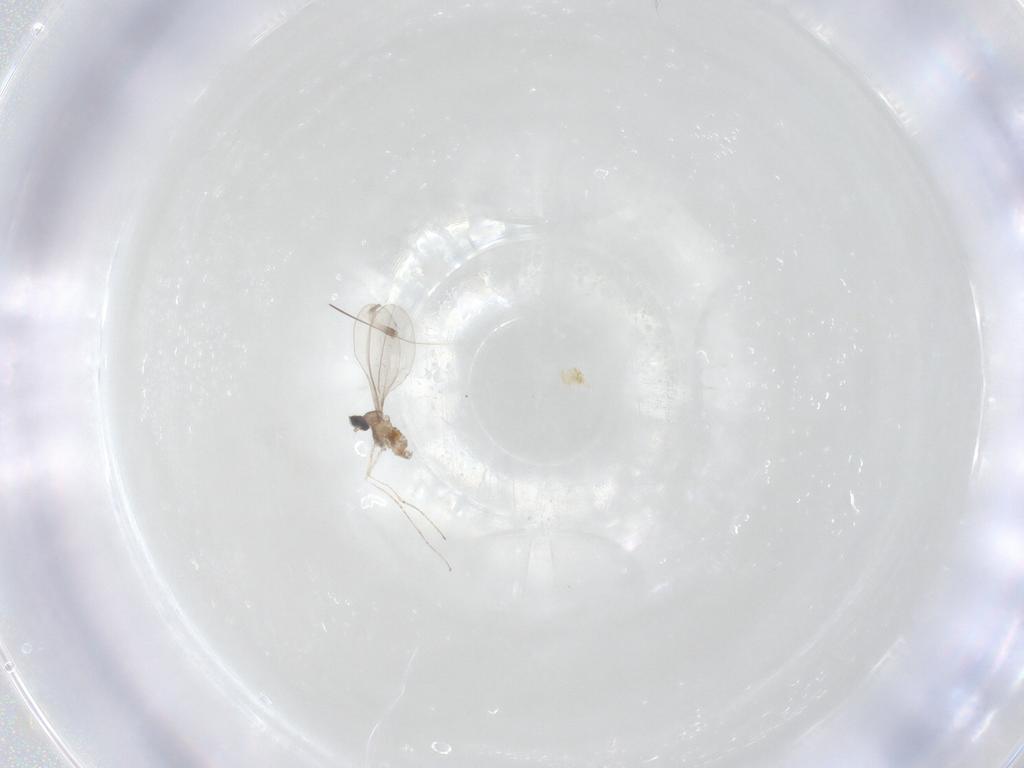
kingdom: Animalia
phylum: Arthropoda
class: Insecta
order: Diptera
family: Cecidomyiidae
